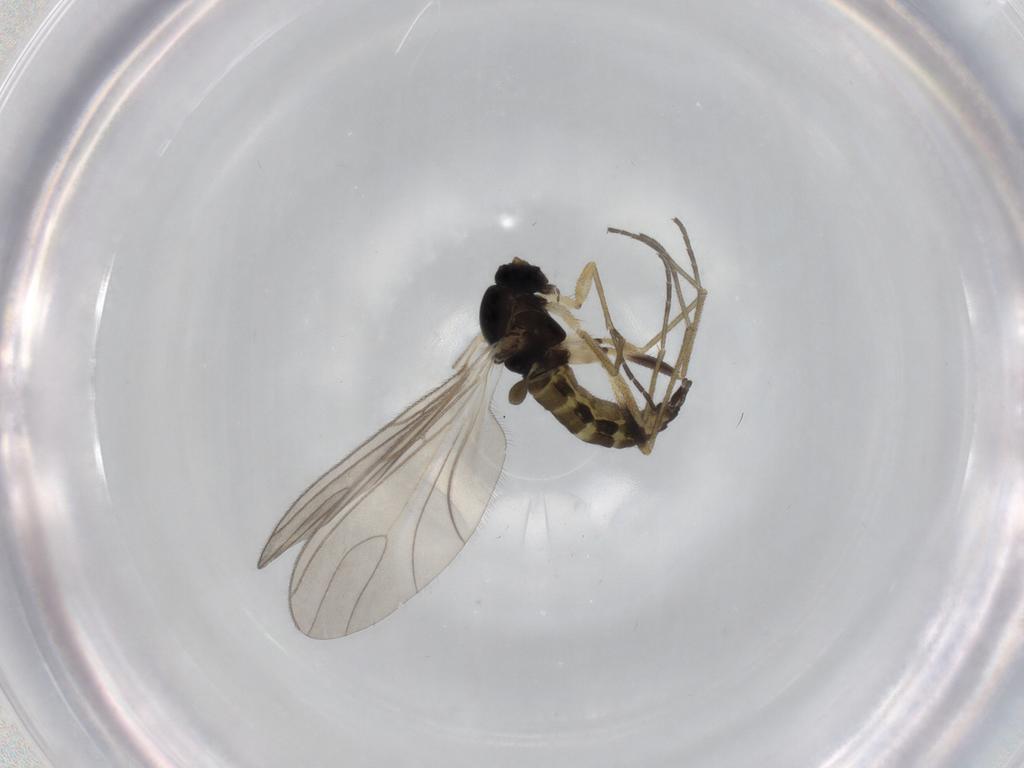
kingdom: Animalia
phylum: Arthropoda
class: Insecta
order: Diptera
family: Sciaridae
